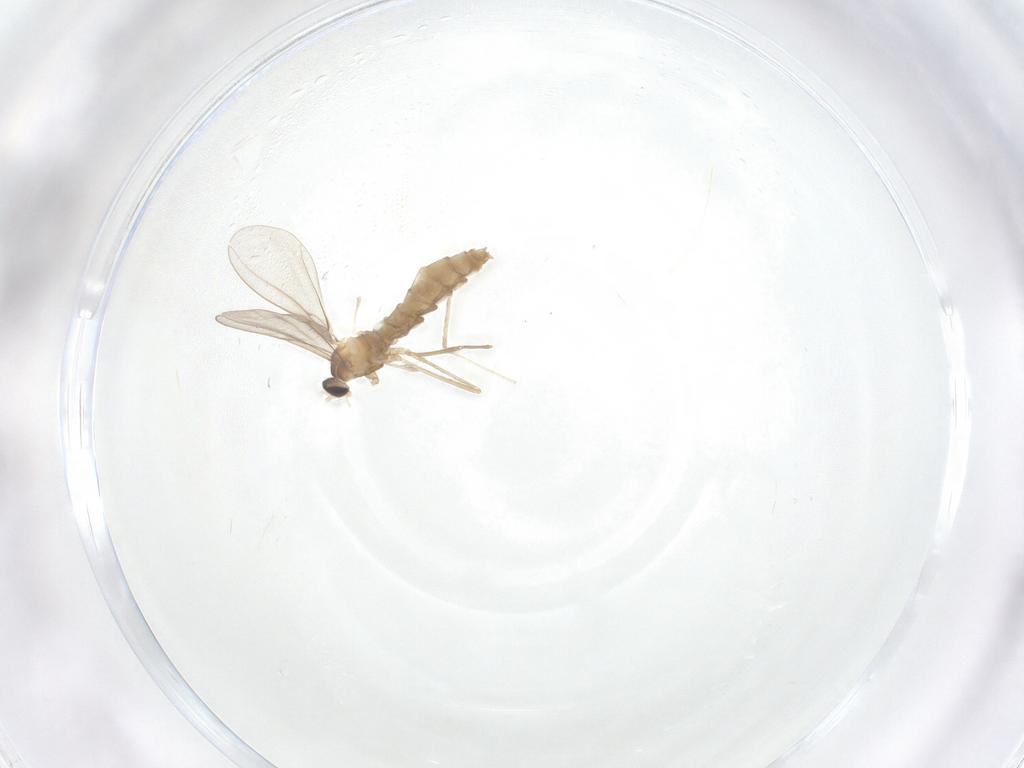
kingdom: Animalia
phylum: Arthropoda
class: Insecta
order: Diptera
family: Cecidomyiidae
